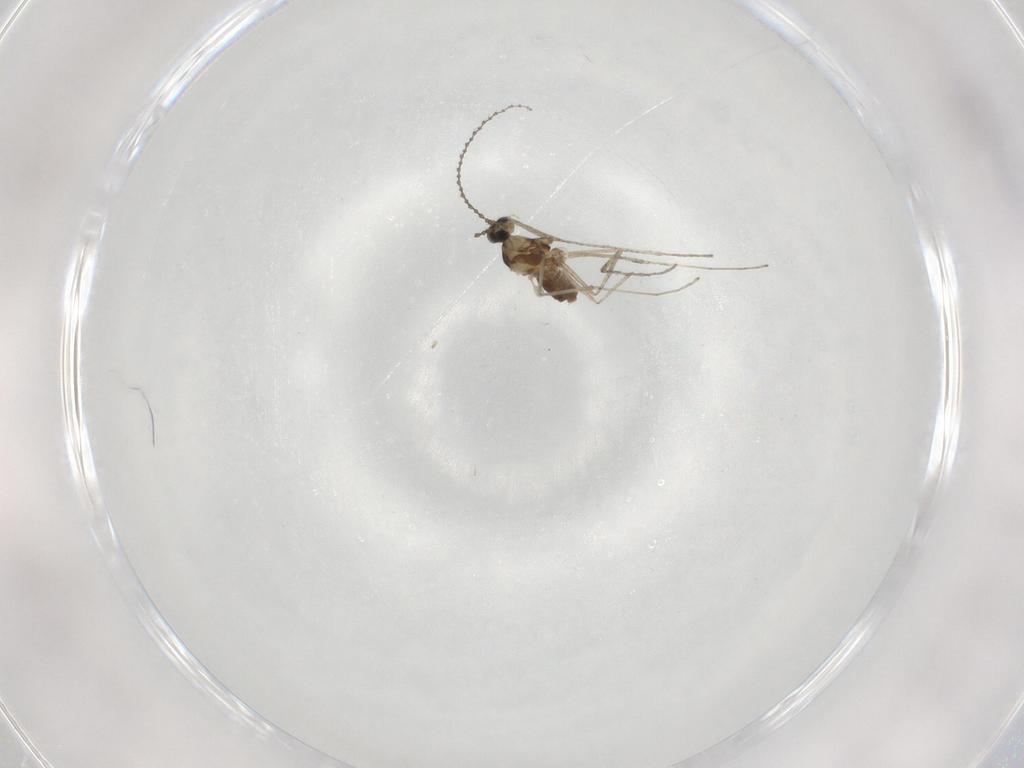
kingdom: Animalia
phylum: Arthropoda
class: Insecta
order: Diptera
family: Cecidomyiidae
